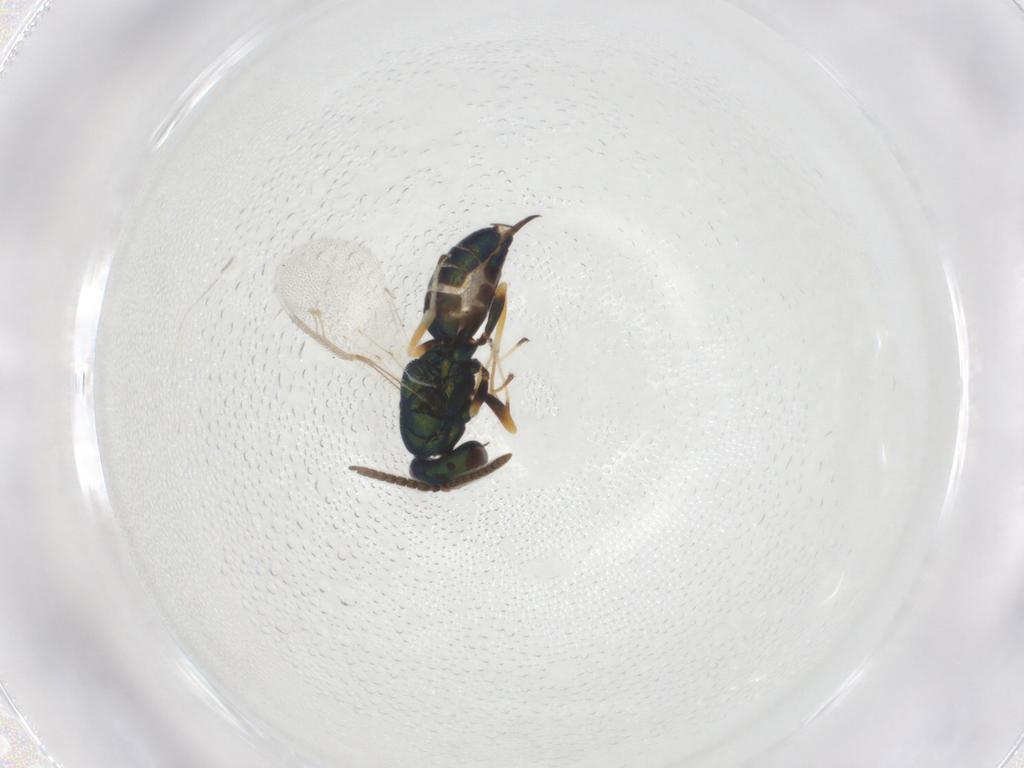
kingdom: Animalia
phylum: Arthropoda
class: Insecta
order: Hymenoptera
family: Pteromalidae
